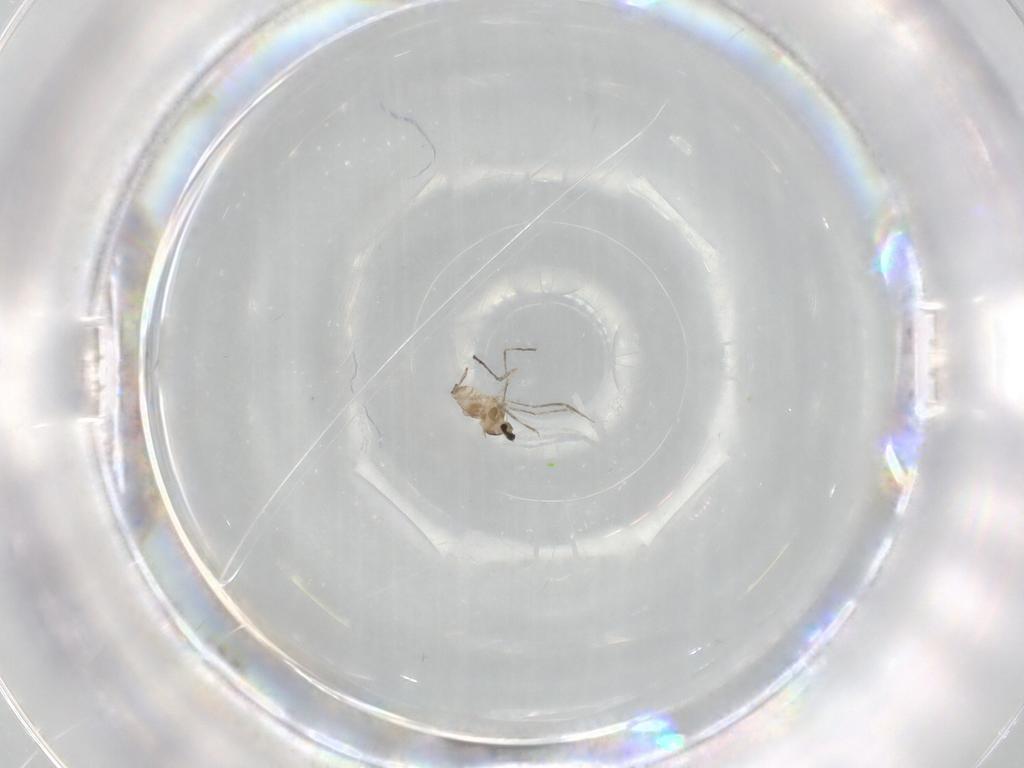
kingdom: Animalia
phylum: Arthropoda
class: Insecta
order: Diptera
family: Cecidomyiidae
